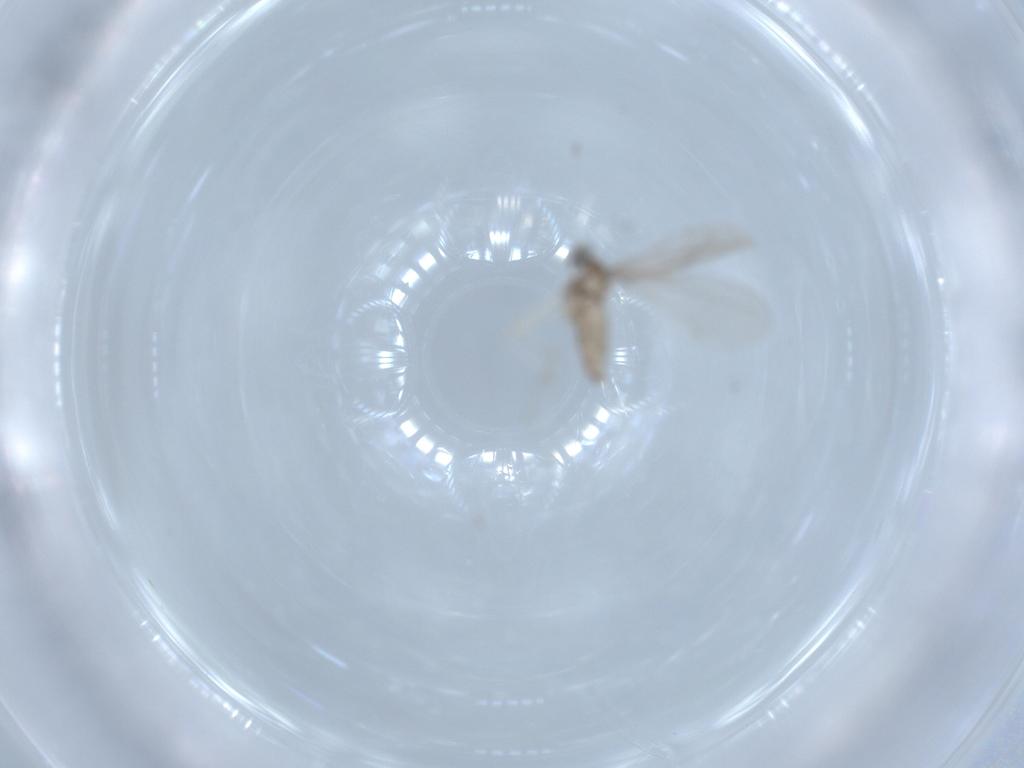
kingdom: Animalia
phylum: Arthropoda
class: Insecta
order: Diptera
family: Cecidomyiidae
